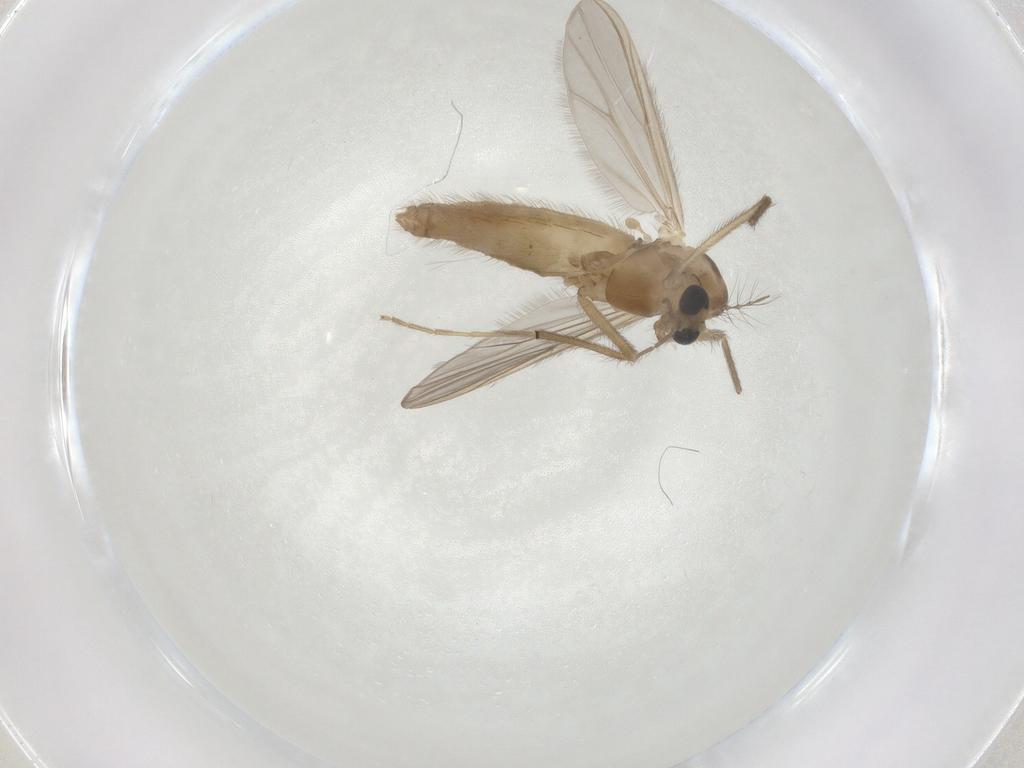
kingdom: Animalia
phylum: Arthropoda
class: Insecta
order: Diptera
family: Chironomidae
